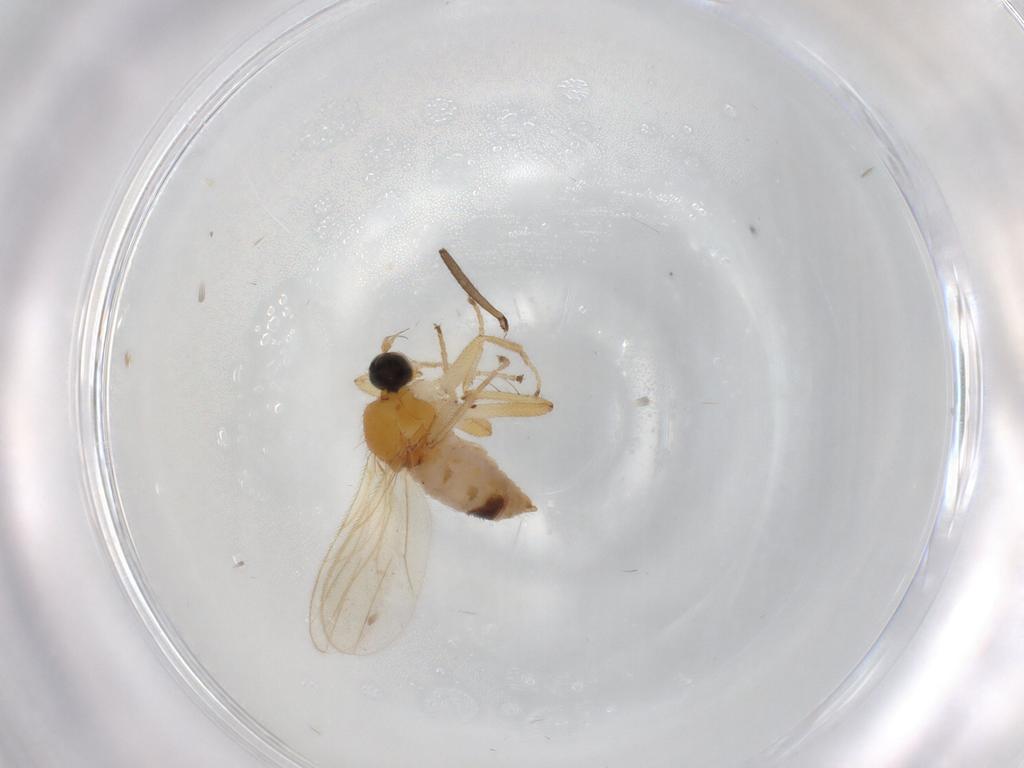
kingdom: Animalia
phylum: Arthropoda
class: Insecta
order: Diptera
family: Hybotidae
